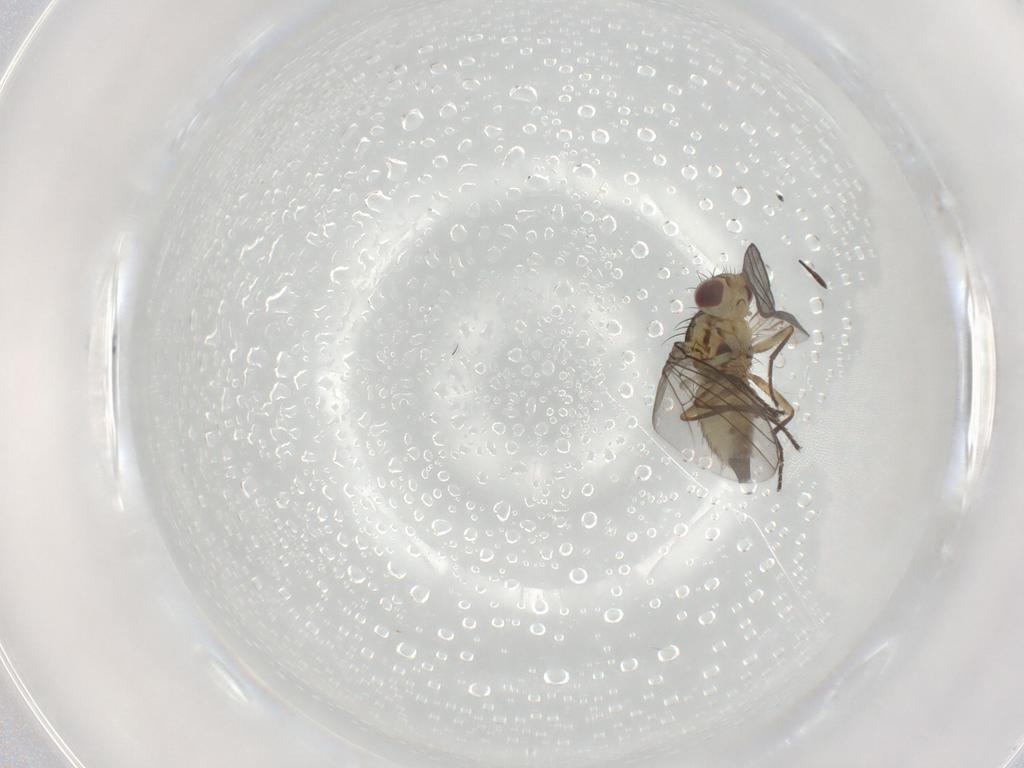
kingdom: Animalia
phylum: Arthropoda
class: Insecta
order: Diptera
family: Agromyzidae
